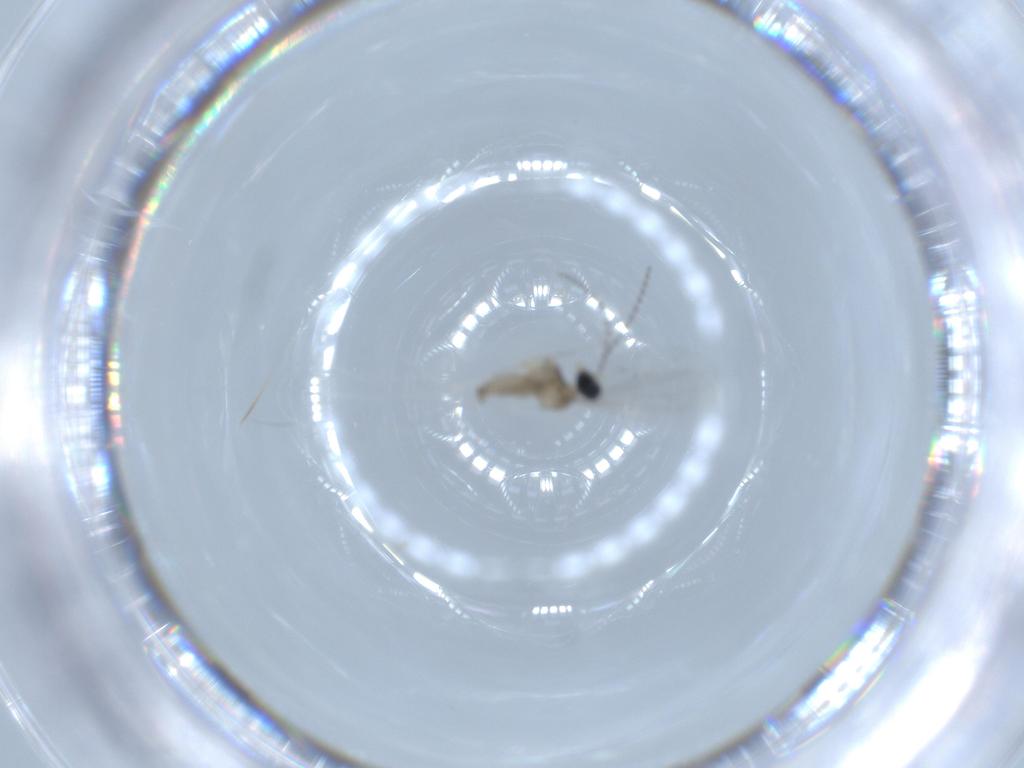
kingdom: Animalia
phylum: Arthropoda
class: Insecta
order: Diptera
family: Cecidomyiidae
